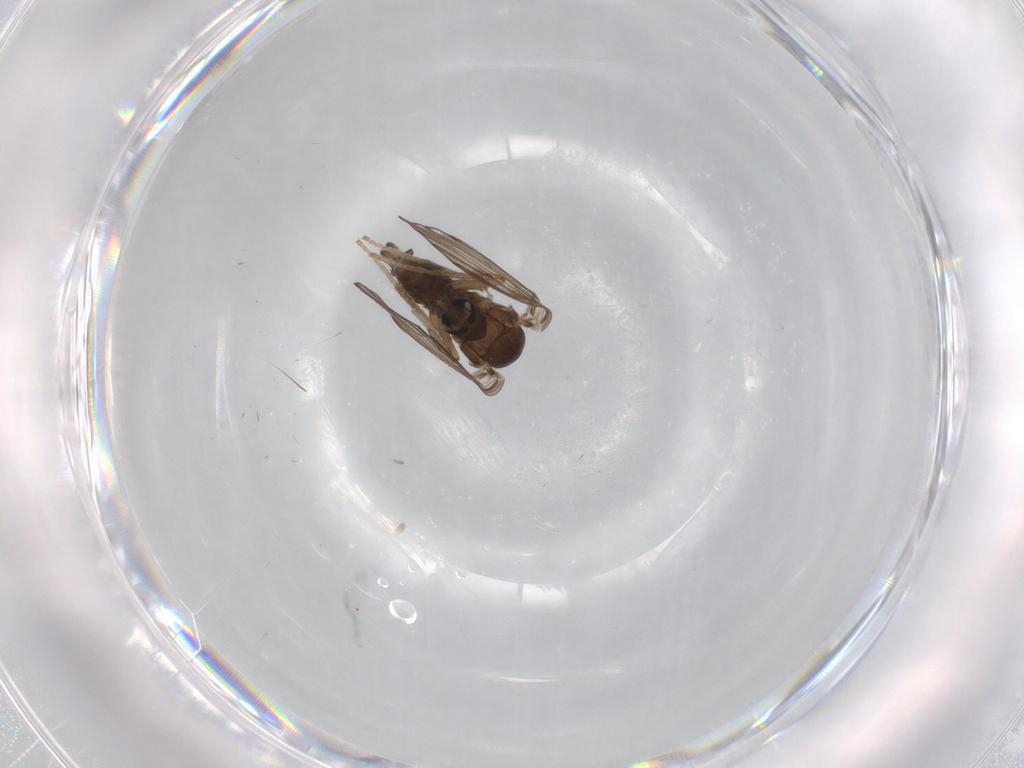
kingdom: Animalia
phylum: Arthropoda
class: Insecta
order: Diptera
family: Psychodidae
